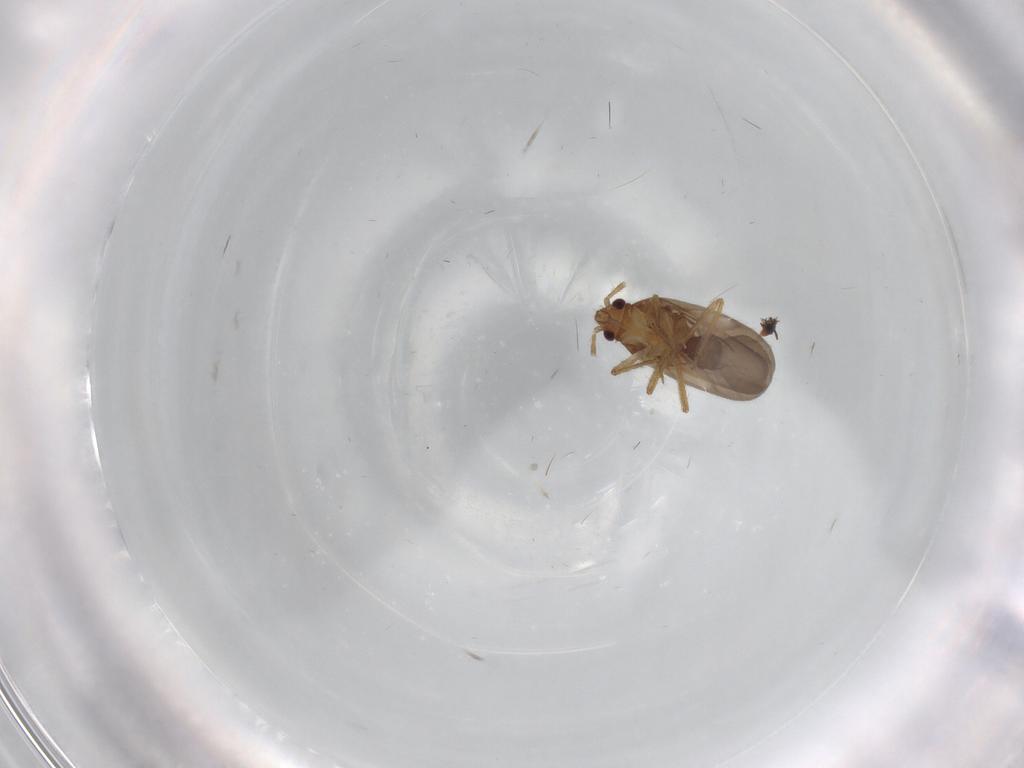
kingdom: Animalia
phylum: Arthropoda
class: Insecta
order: Hemiptera
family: Ceratocombidae
